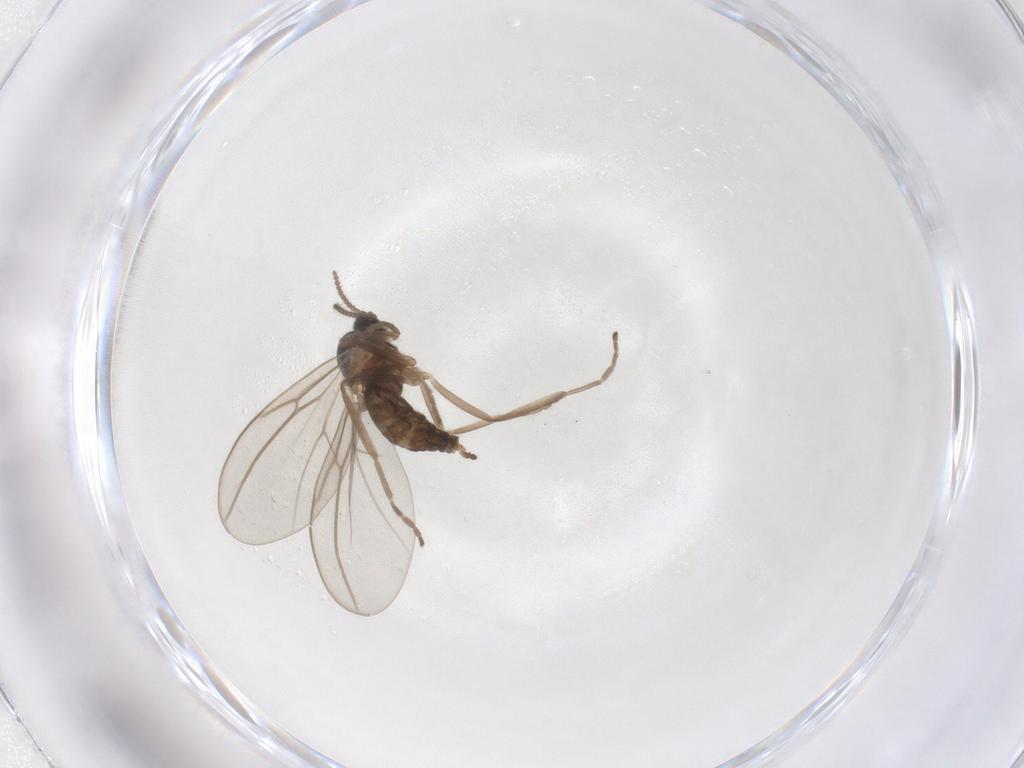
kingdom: Animalia
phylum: Arthropoda
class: Insecta
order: Diptera
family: Cecidomyiidae
